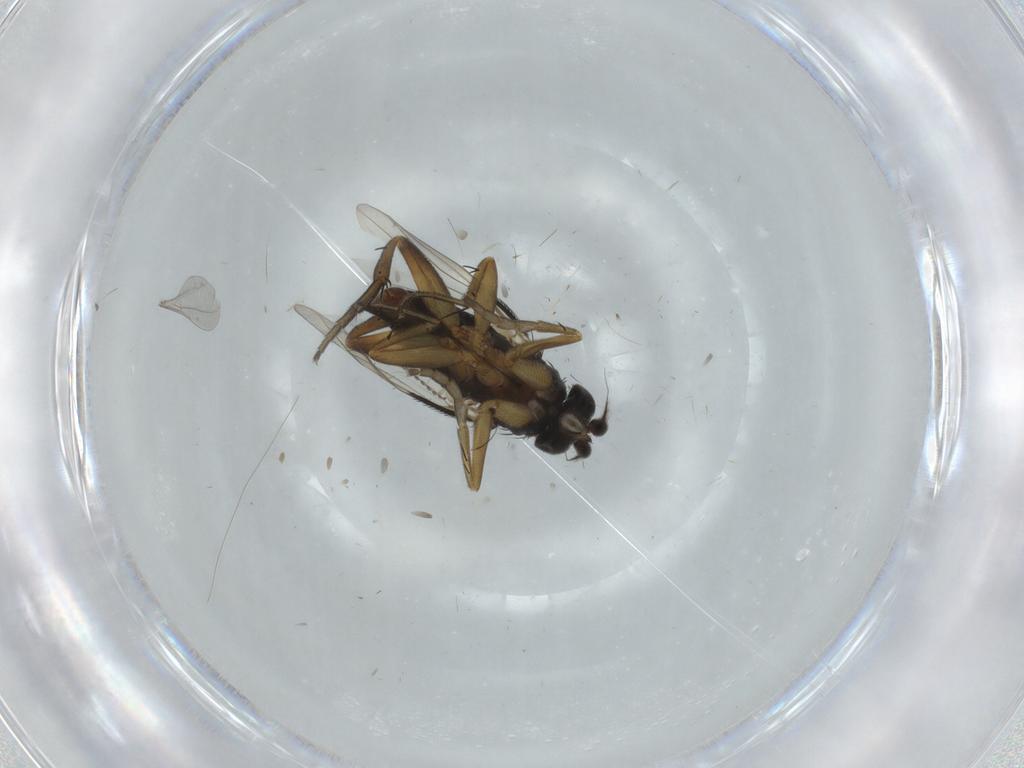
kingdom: Animalia
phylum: Arthropoda
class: Insecta
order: Diptera
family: Phoridae
